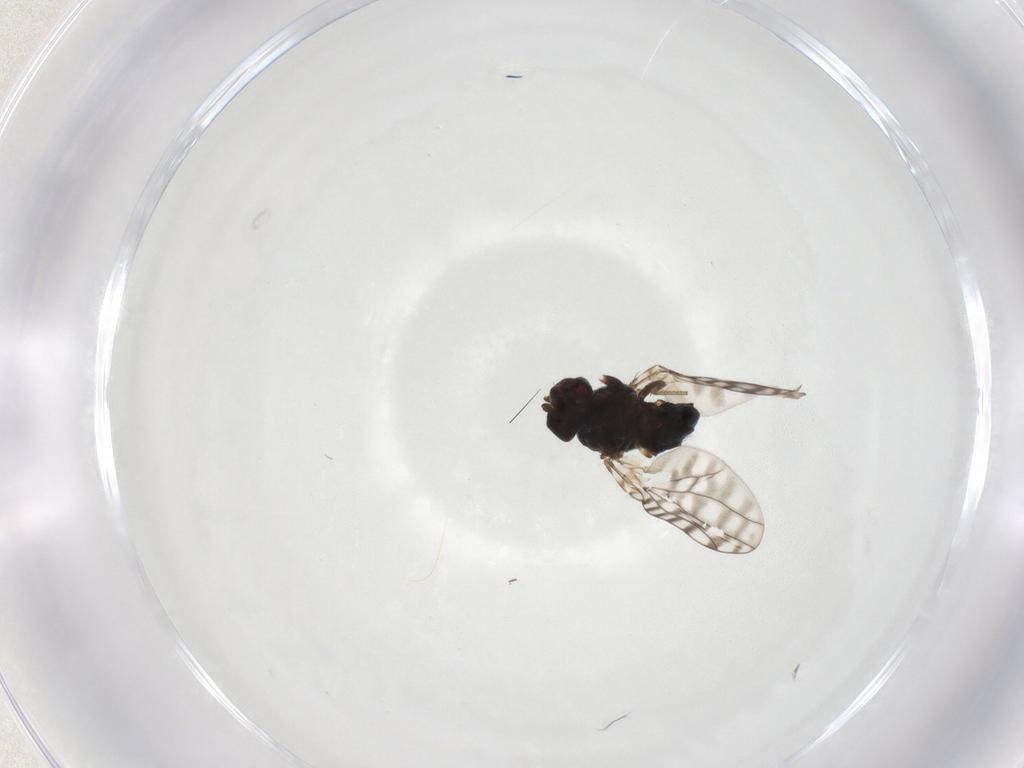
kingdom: Animalia
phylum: Arthropoda
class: Insecta
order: Diptera
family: Ephydridae
